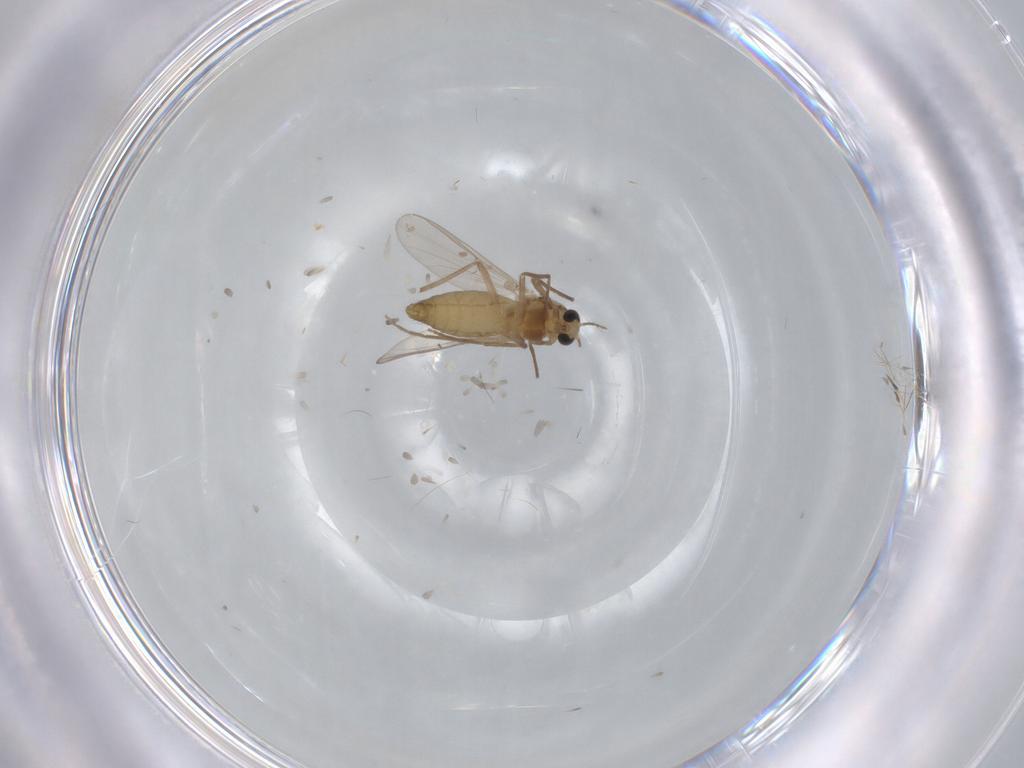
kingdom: Animalia
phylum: Arthropoda
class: Insecta
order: Diptera
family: Chironomidae
